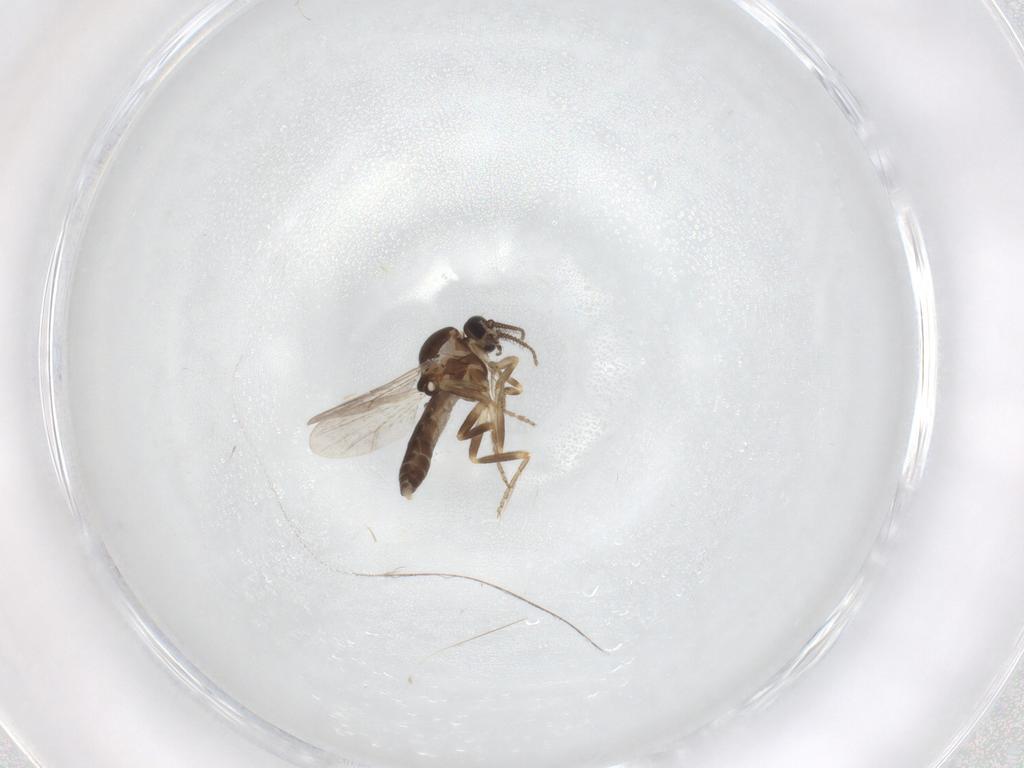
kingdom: Animalia
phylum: Arthropoda
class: Insecta
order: Diptera
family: Ceratopogonidae
